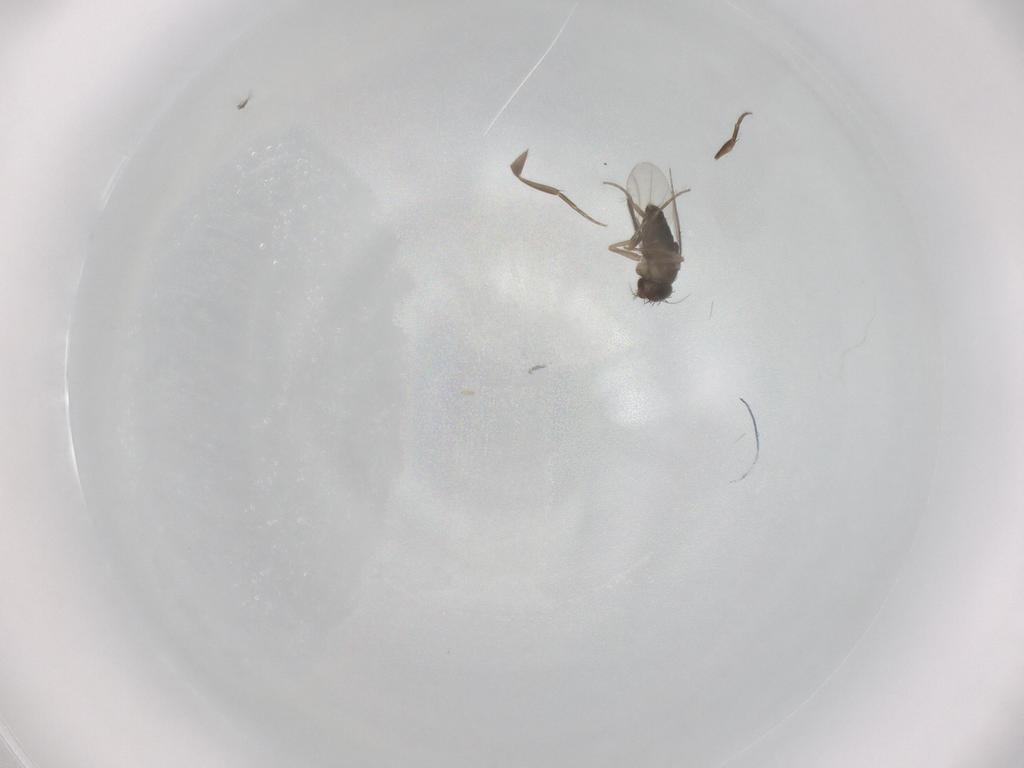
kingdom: Animalia
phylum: Arthropoda
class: Insecta
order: Diptera
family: Phoridae
